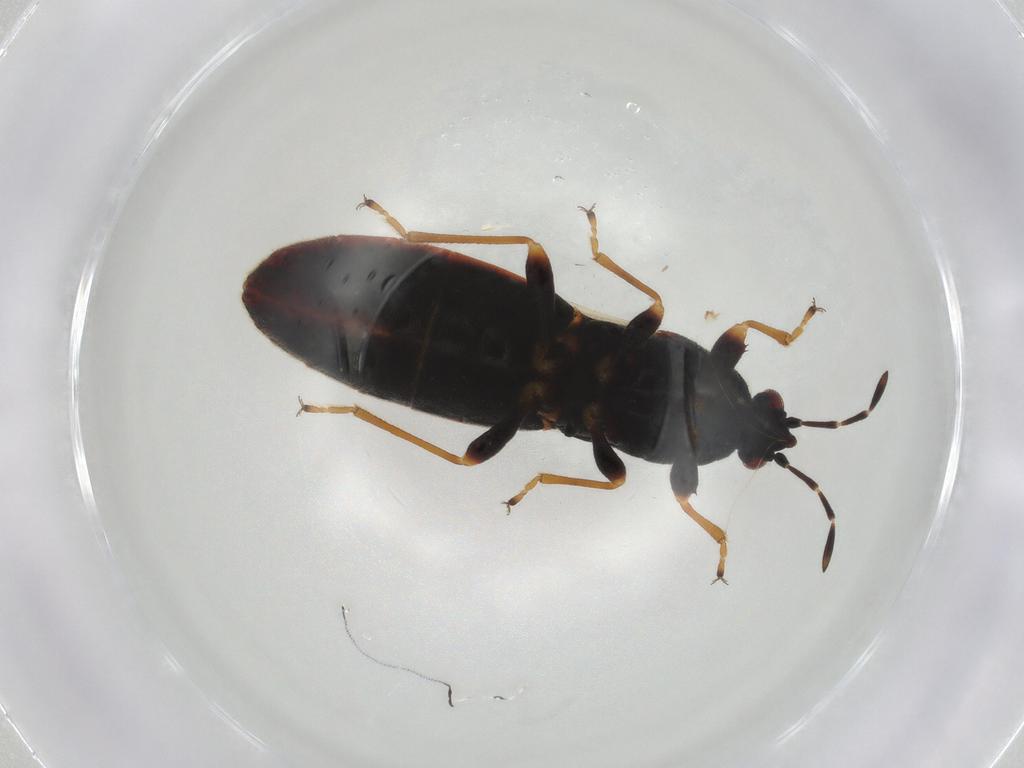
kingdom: Animalia
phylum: Arthropoda
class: Insecta
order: Hemiptera
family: Blissidae
